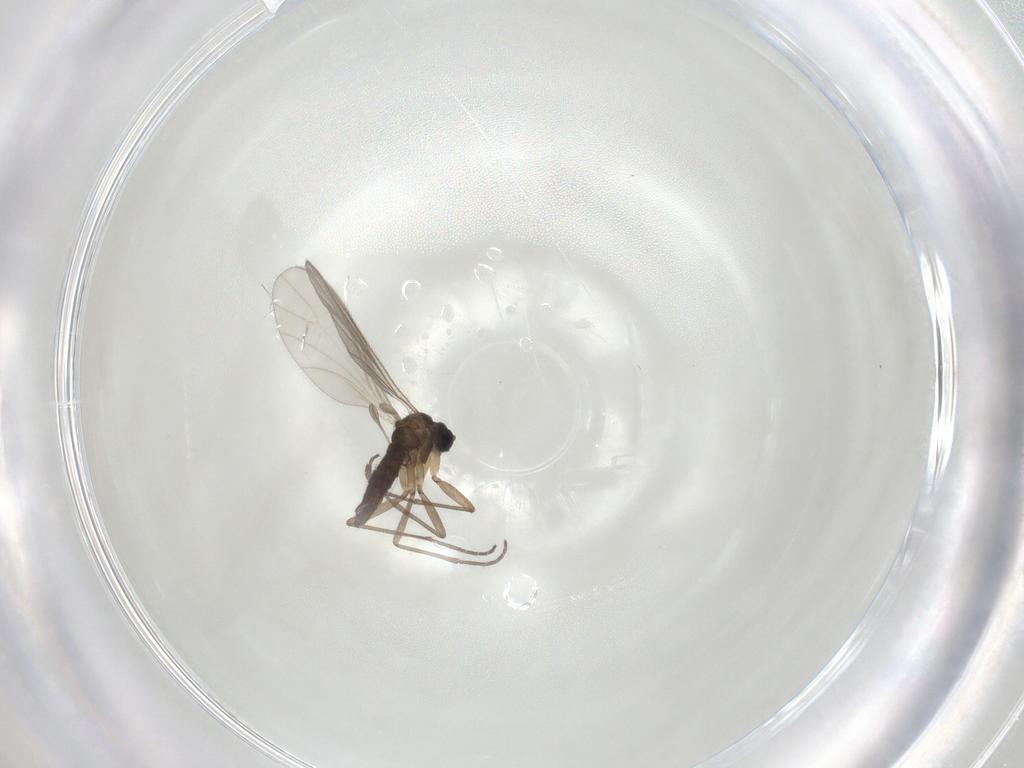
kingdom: Animalia
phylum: Arthropoda
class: Insecta
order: Diptera
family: Sciaridae
